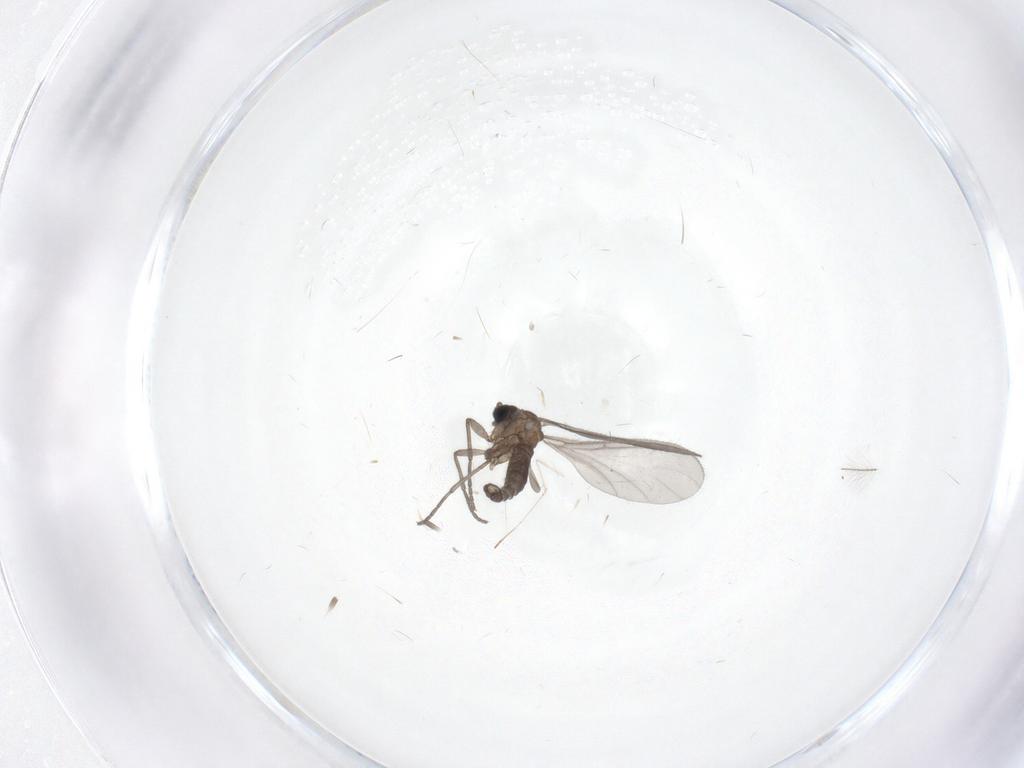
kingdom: Animalia
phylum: Arthropoda
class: Insecta
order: Diptera
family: Sciaridae
